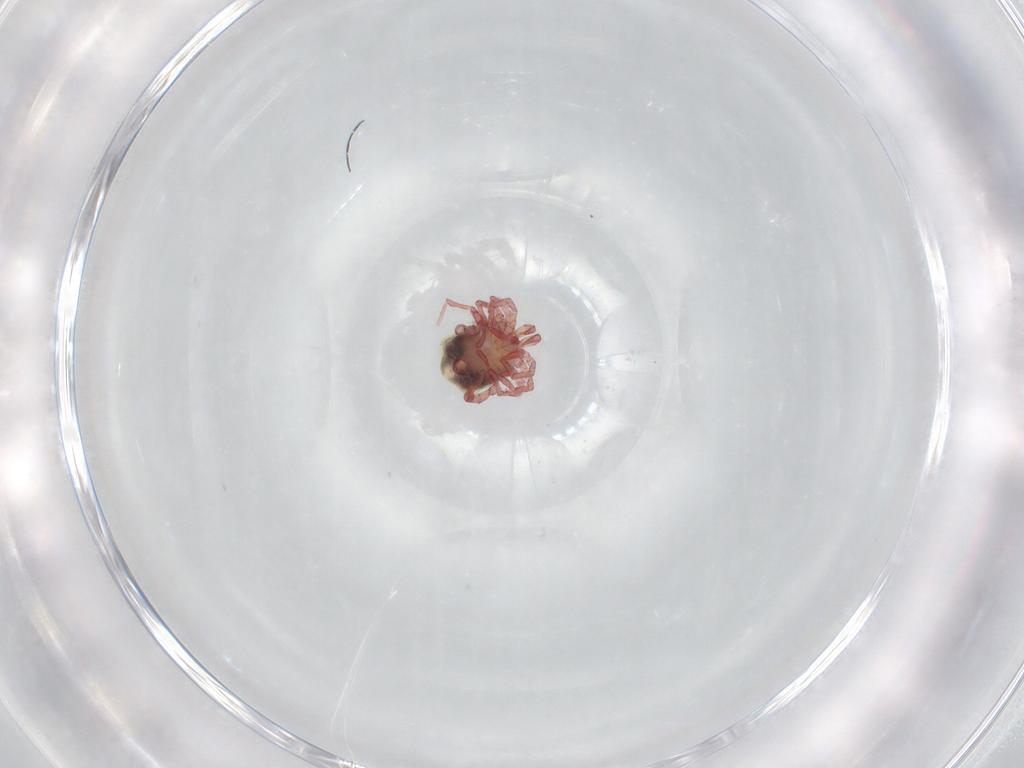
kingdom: Animalia
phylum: Arthropoda
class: Arachnida
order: Trombidiformes
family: Pionidae
